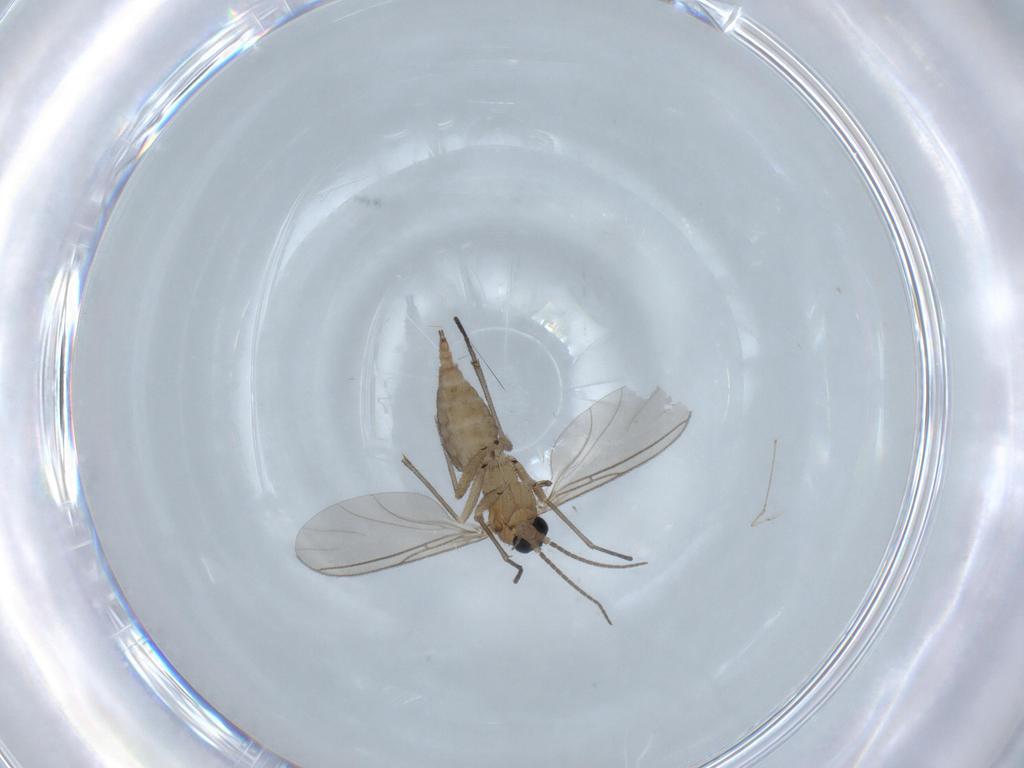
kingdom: Animalia
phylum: Arthropoda
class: Insecta
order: Diptera
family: Sciaridae
